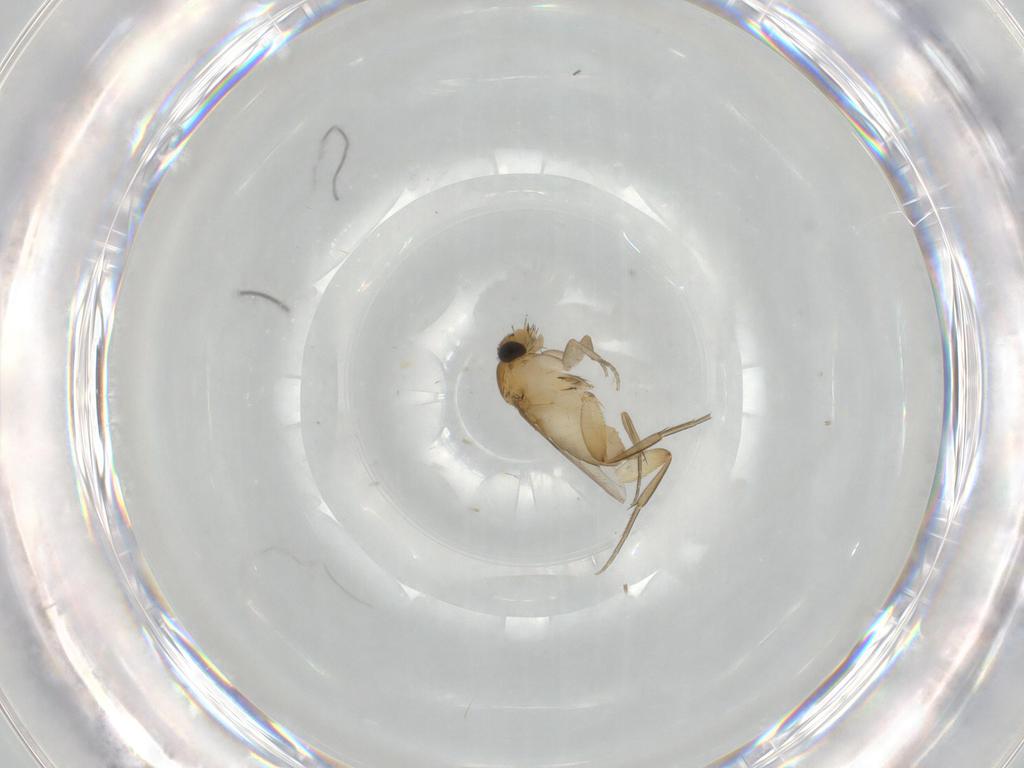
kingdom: Animalia
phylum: Arthropoda
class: Insecta
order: Diptera
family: Phoridae
